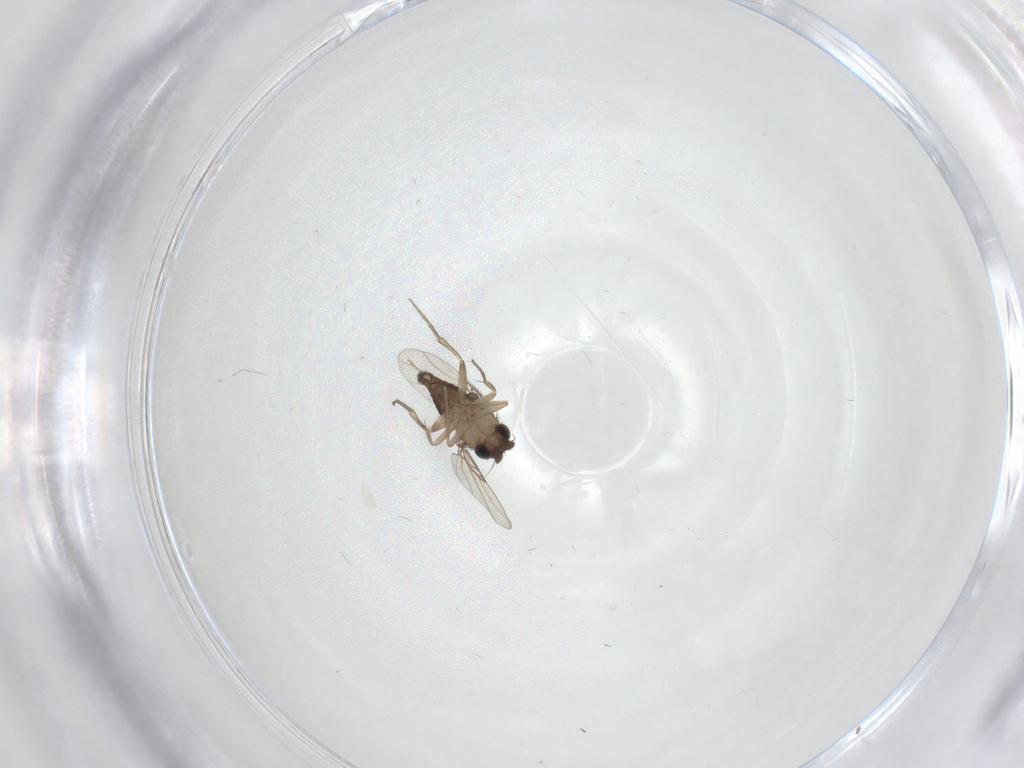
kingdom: Animalia
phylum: Arthropoda
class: Insecta
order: Diptera
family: Phoridae
